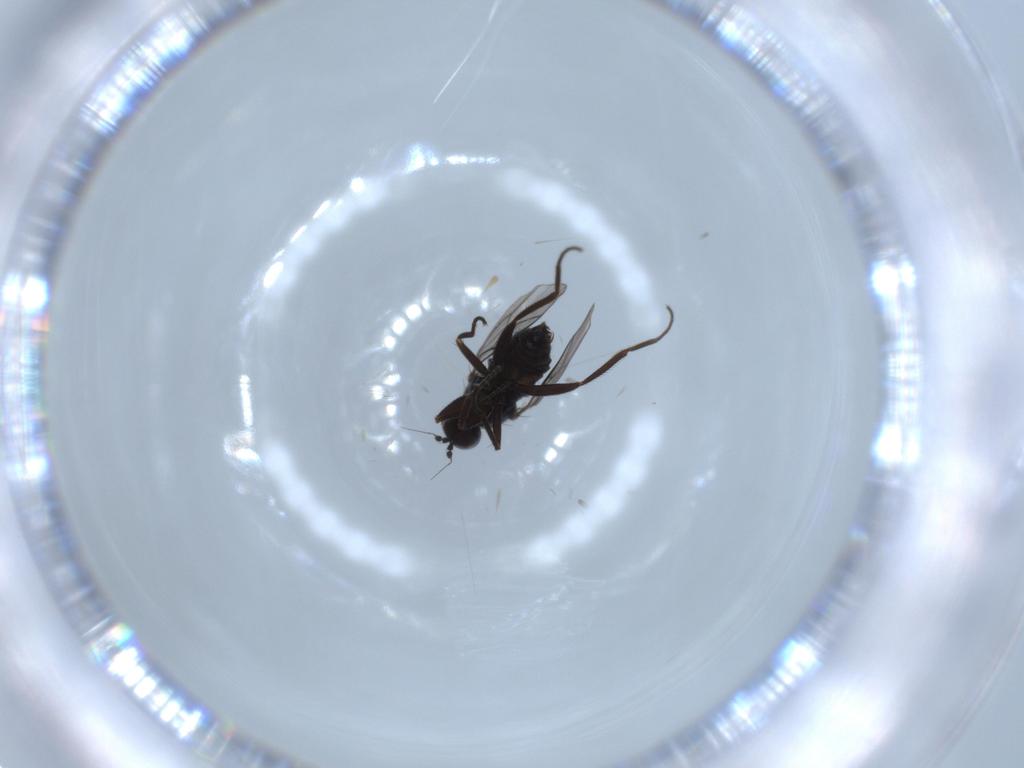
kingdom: Animalia
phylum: Arthropoda
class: Insecta
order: Diptera
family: Hybotidae
